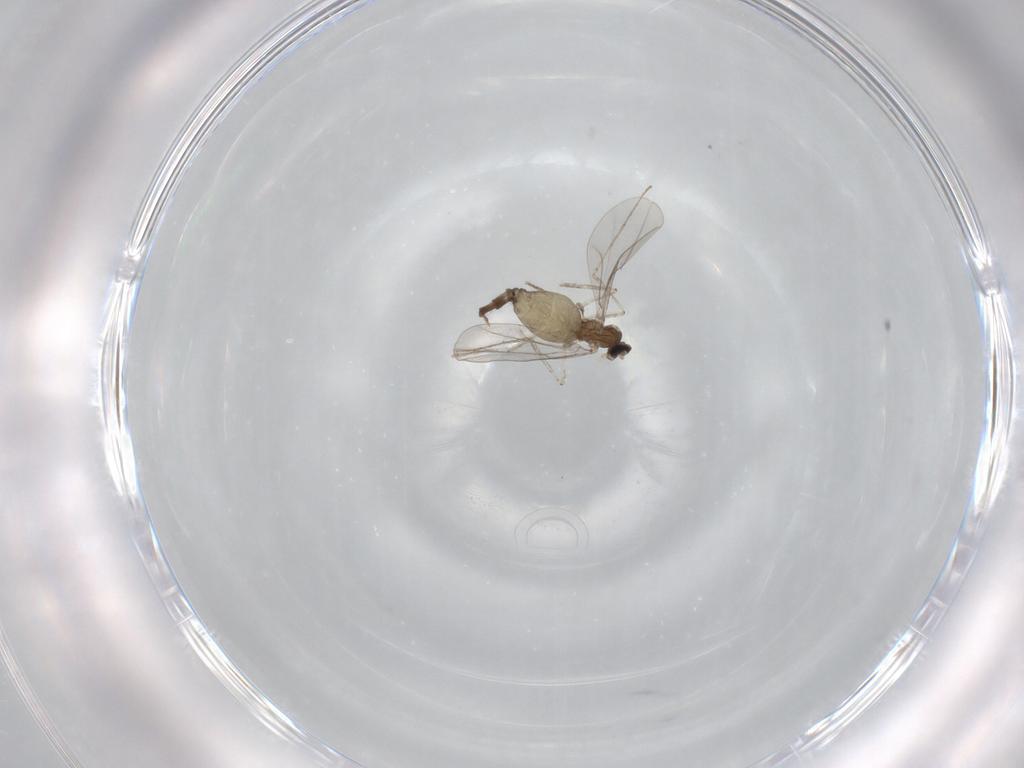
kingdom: Animalia
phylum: Arthropoda
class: Insecta
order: Diptera
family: Cecidomyiidae
